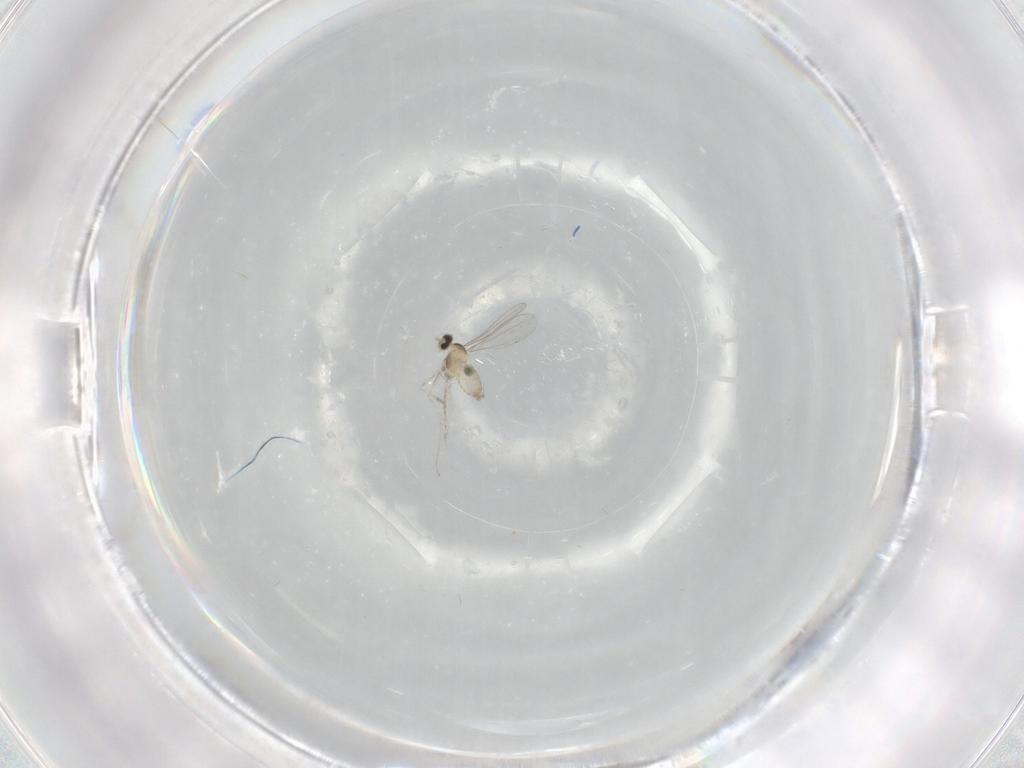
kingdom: Animalia
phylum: Arthropoda
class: Insecta
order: Diptera
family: Cecidomyiidae
